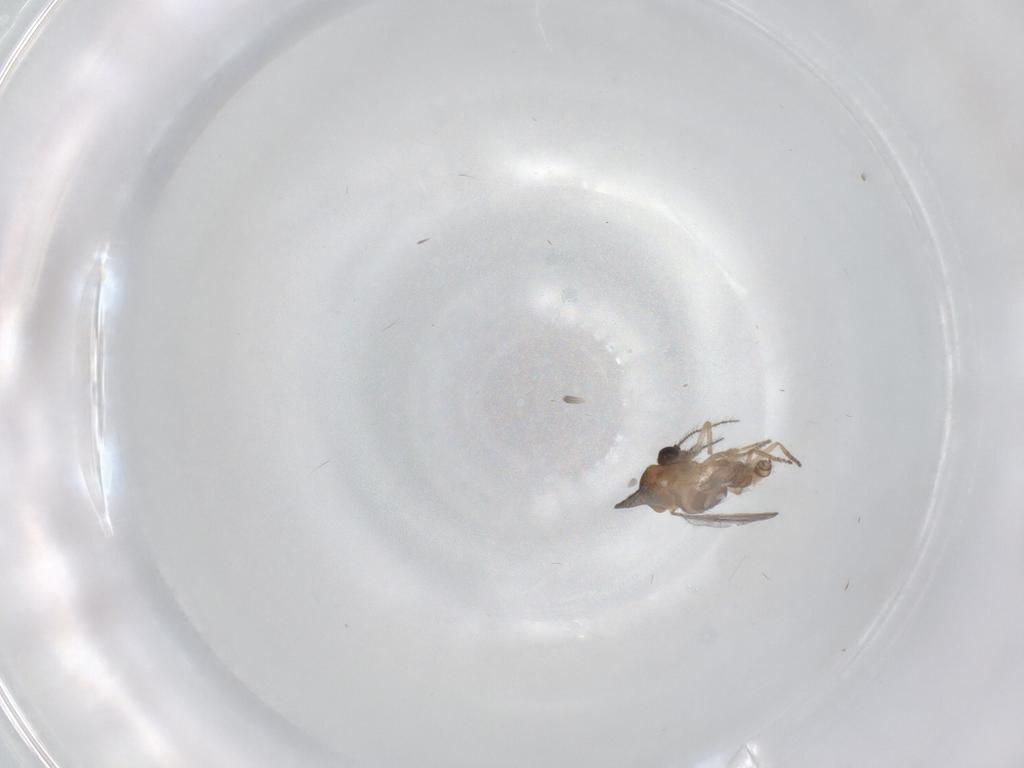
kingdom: Animalia
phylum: Arthropoda
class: Insecta
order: Diptera
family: Ceratopogonidae
